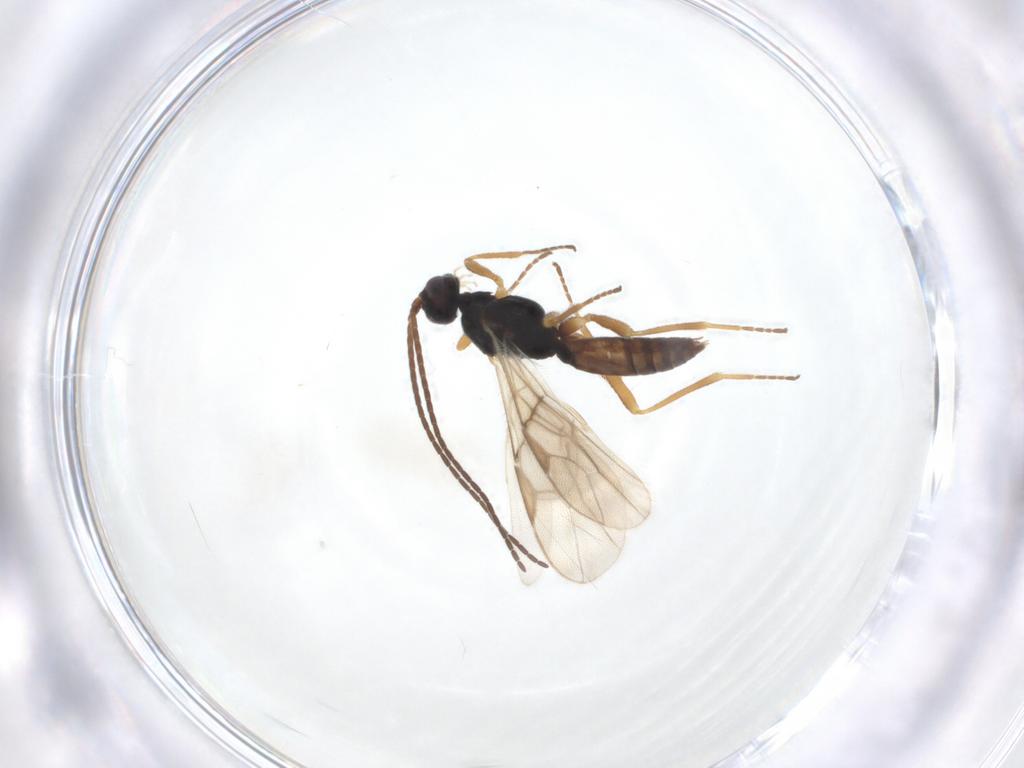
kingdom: Animalia
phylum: Arthropoda
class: Insecta
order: Hymenoptera
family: Braconidae
